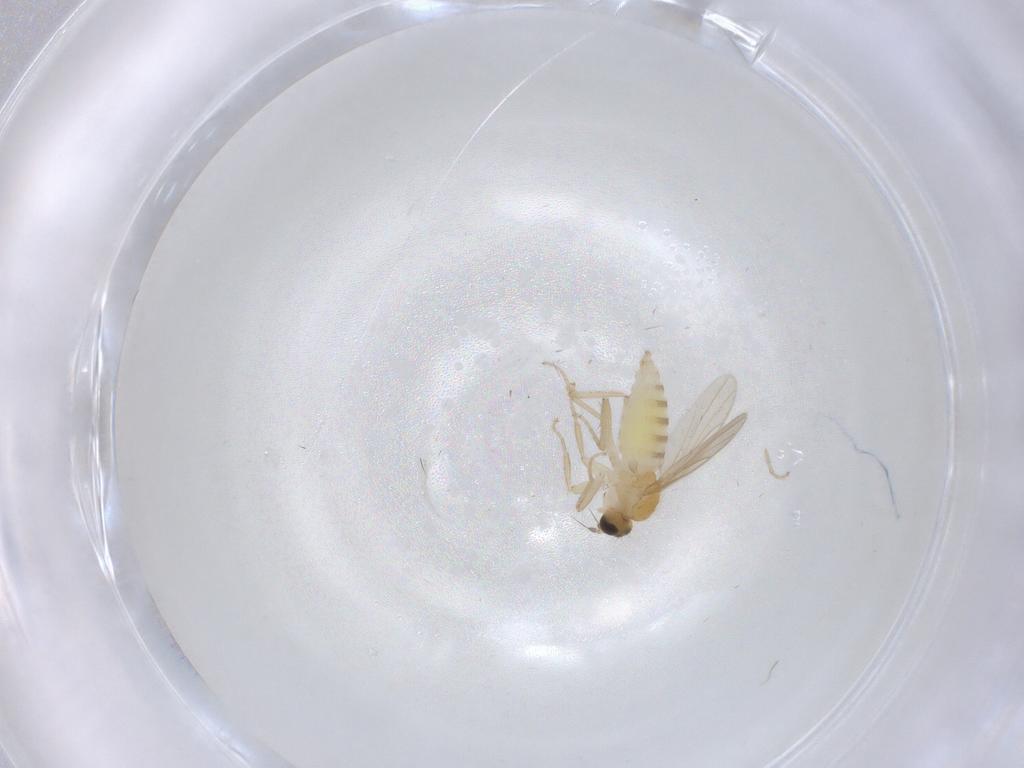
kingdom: Animalia
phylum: Arthropoda
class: Insecta
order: Diptera
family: Hybotidae
